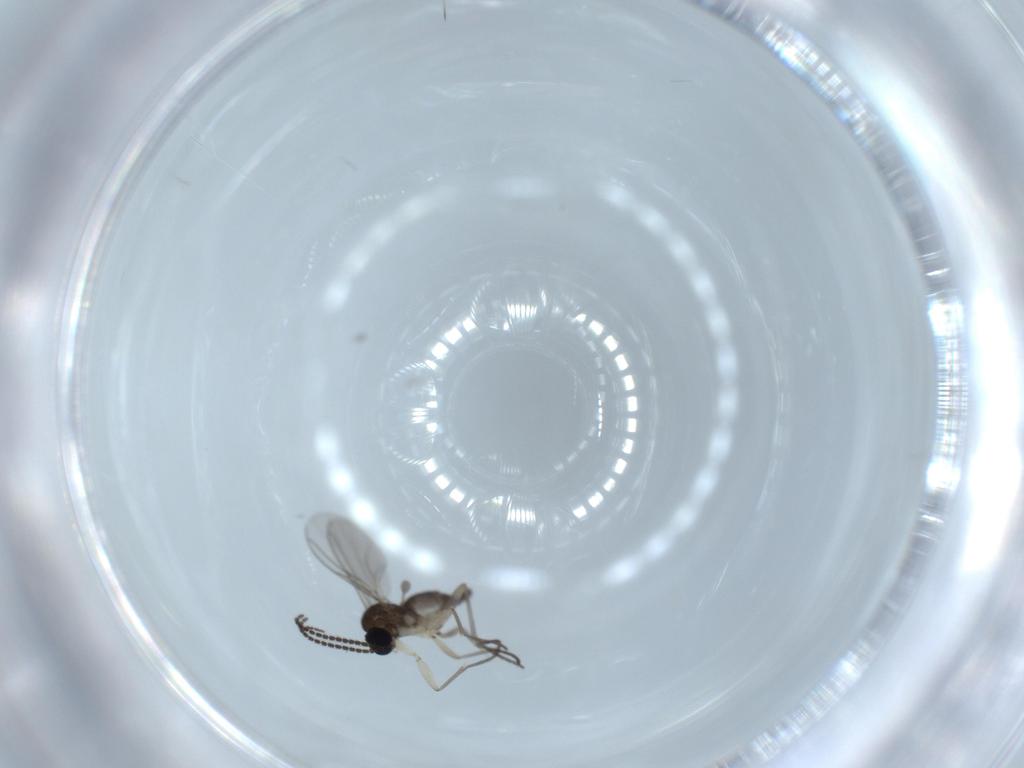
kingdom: Animalia
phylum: Arthropoda
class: Insecta
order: Diptera
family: Sciaridae
